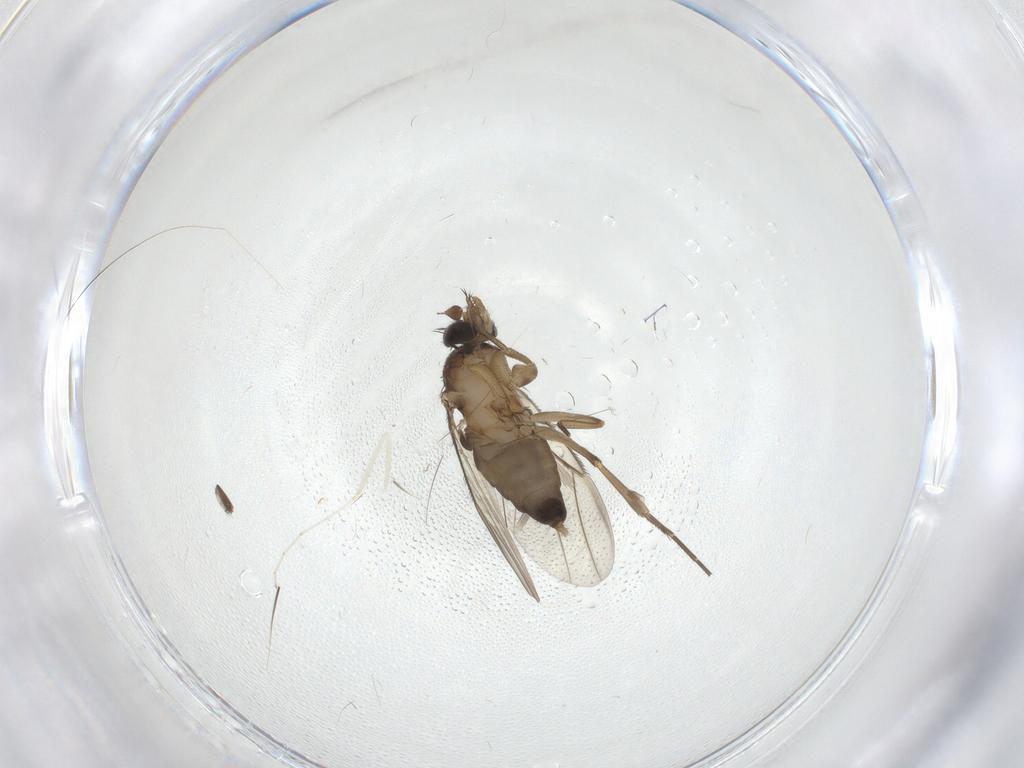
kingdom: Animalia
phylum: Arthropoda
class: Insecta
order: Diptera
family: Phoridae
